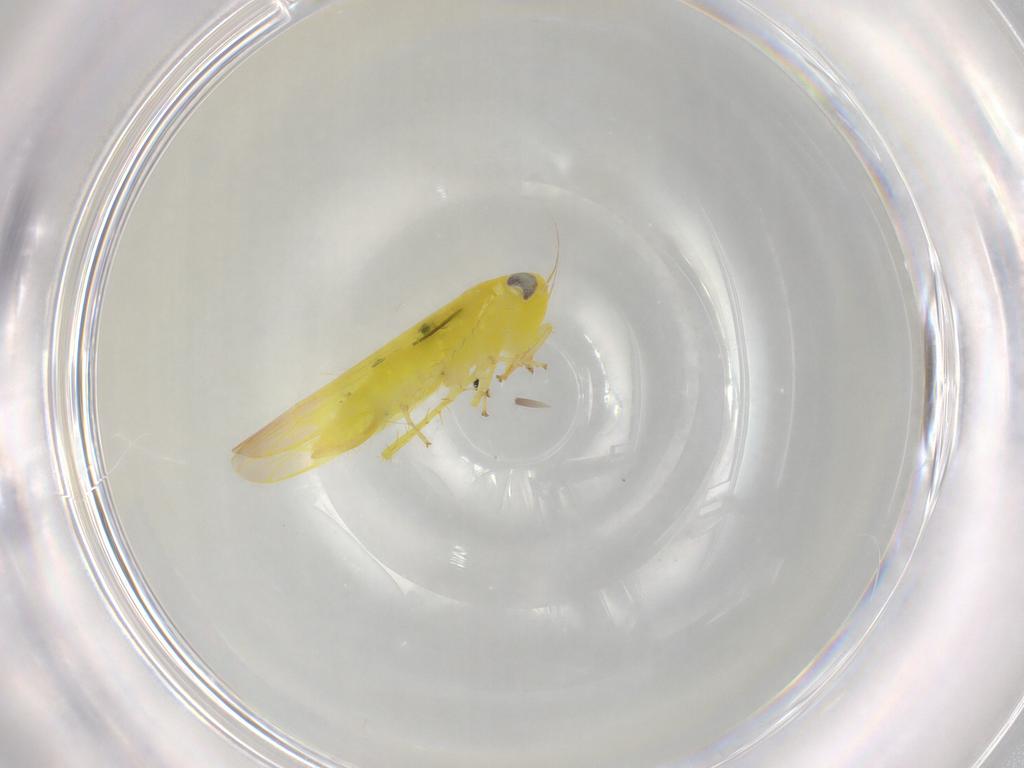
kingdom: Animalia
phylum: Arthropoda
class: Insecta
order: Hemiptera
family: Cicadellidae
